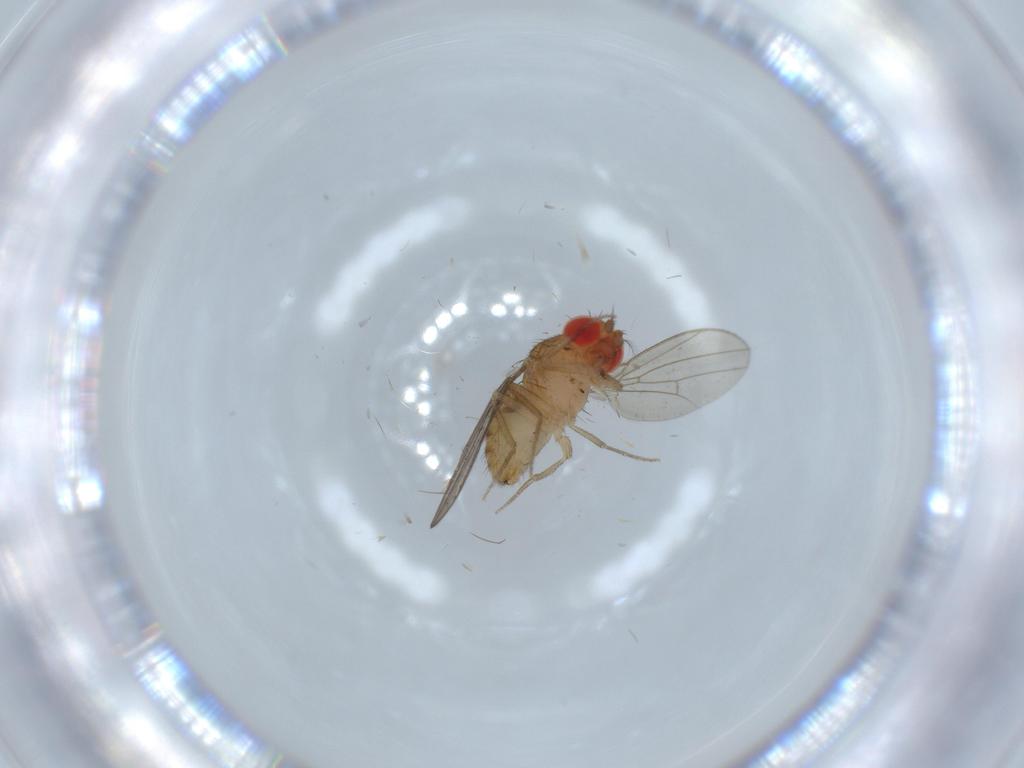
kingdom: Animalia
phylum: Arthropoda
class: Insecta
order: Diptera
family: Drosophilidae
